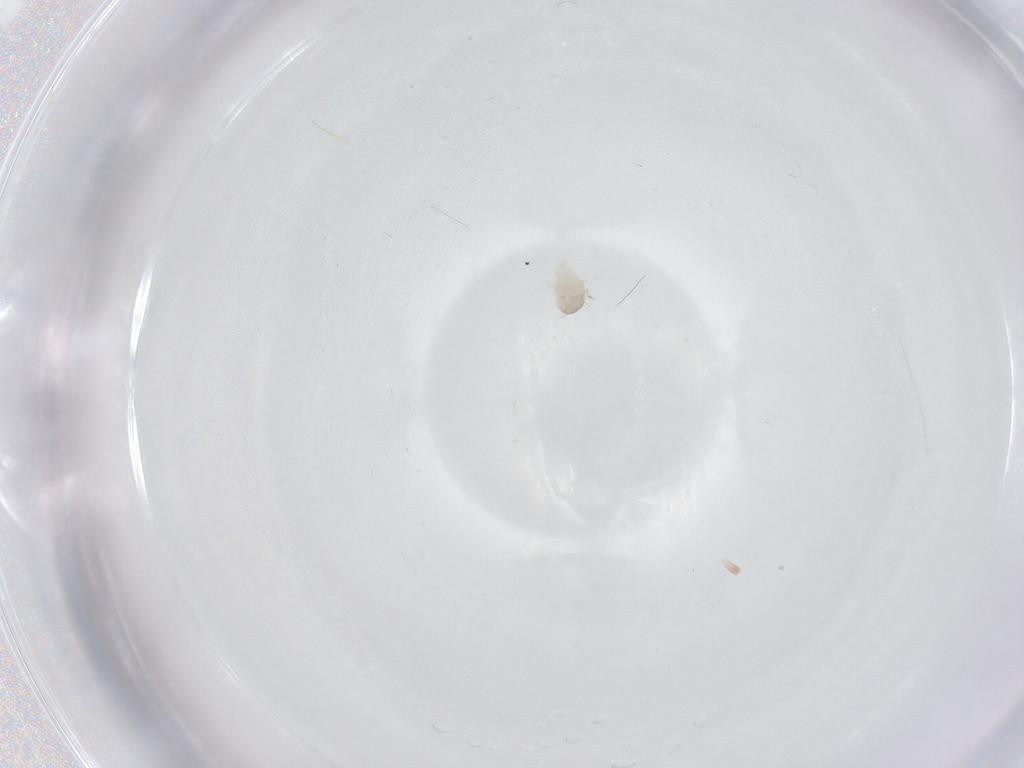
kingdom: Animalia
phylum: Arthropoda
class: Insecta
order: Diptera
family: Cecidomyiidae
